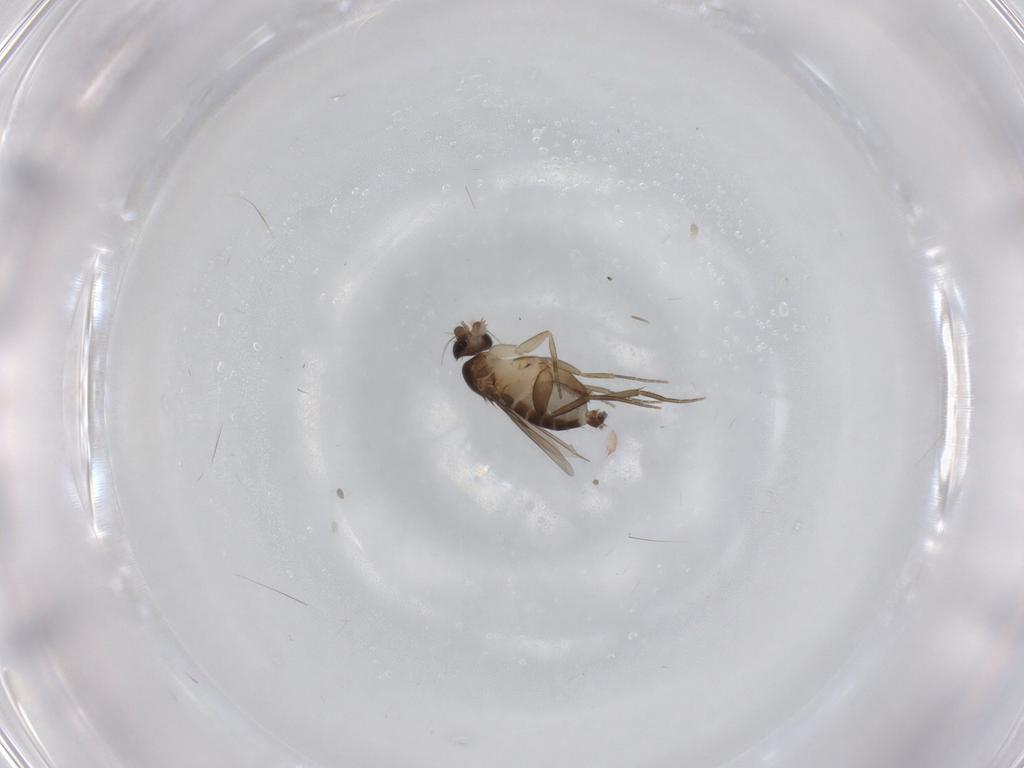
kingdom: Animalia
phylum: Arthropoda
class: Insecta
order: Diptera
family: Phoridae
